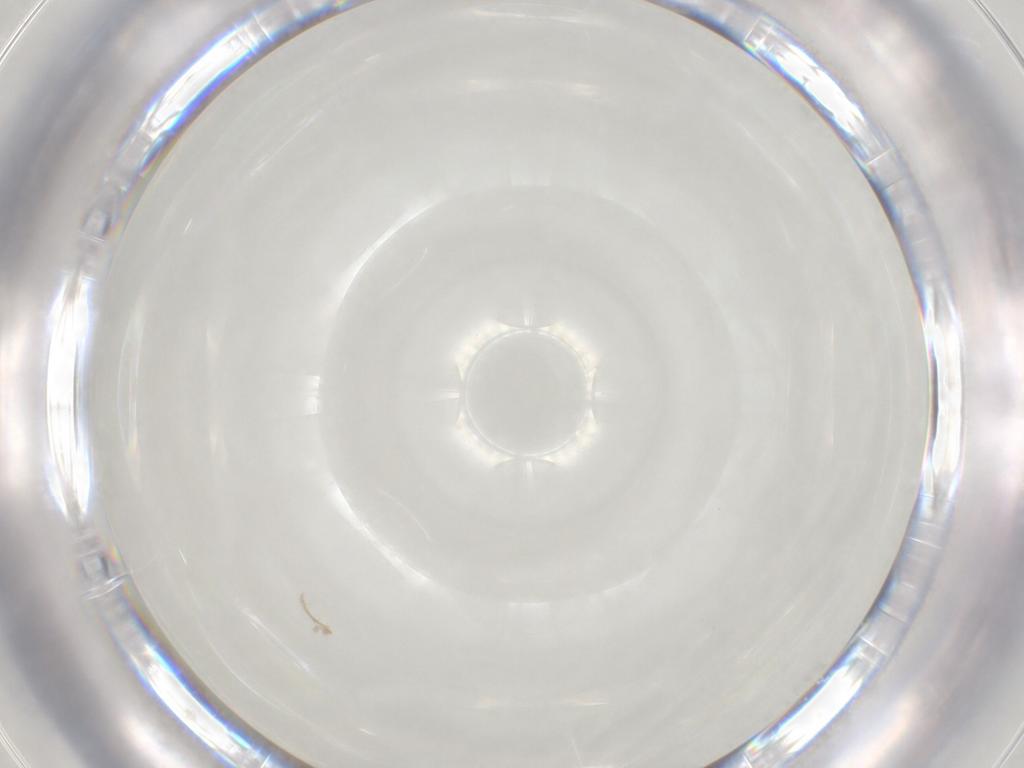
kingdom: Animalia
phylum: Arthropoda
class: Insecta
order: Hymenoptera
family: Mymaridae
